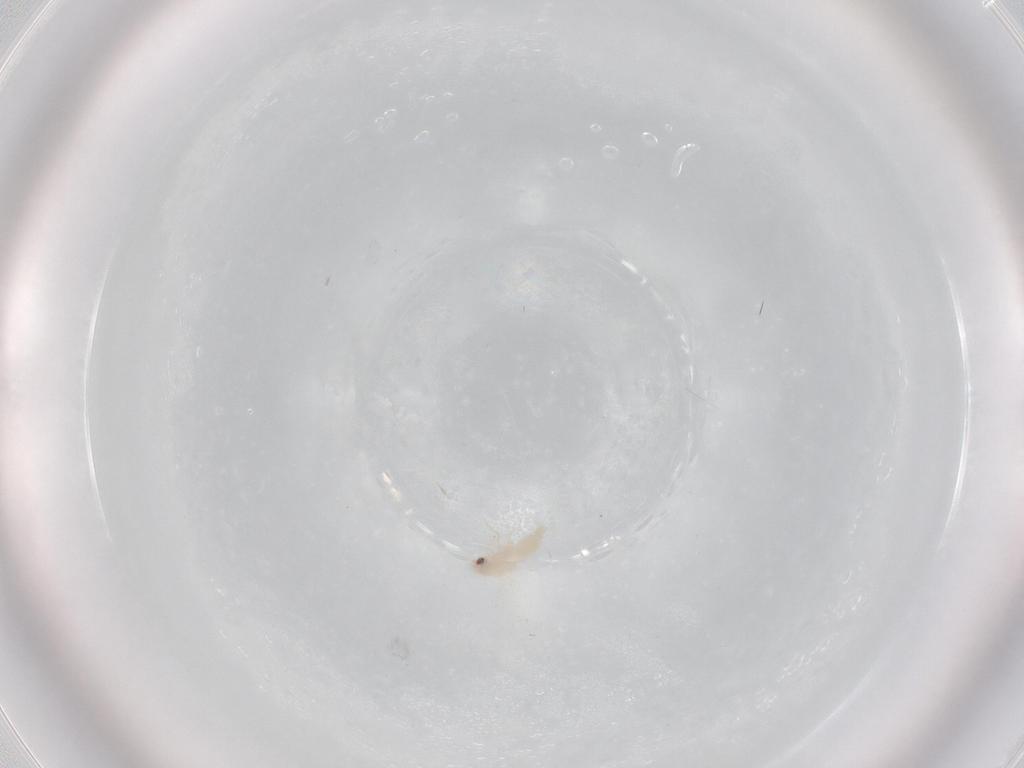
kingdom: Animalia
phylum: Arthropoda
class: Insecta
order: Hemiptera
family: Aleyrodidae
